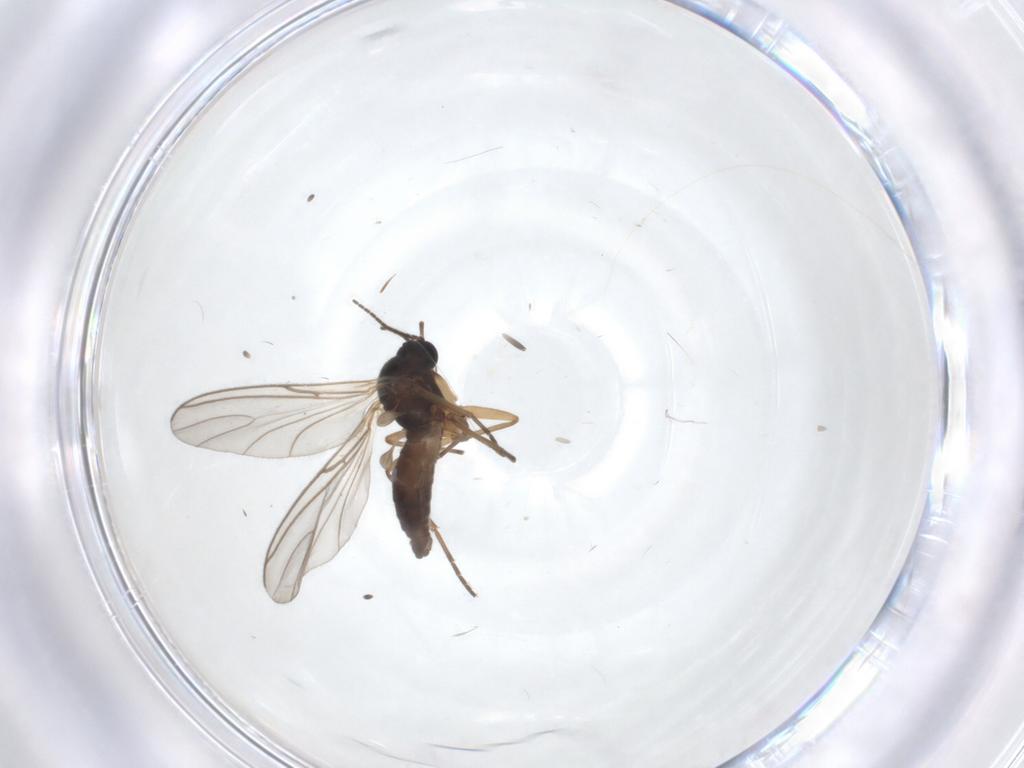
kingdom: Animalia
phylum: Arthropoda
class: Insecta
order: Diptera
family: Sciaridae
